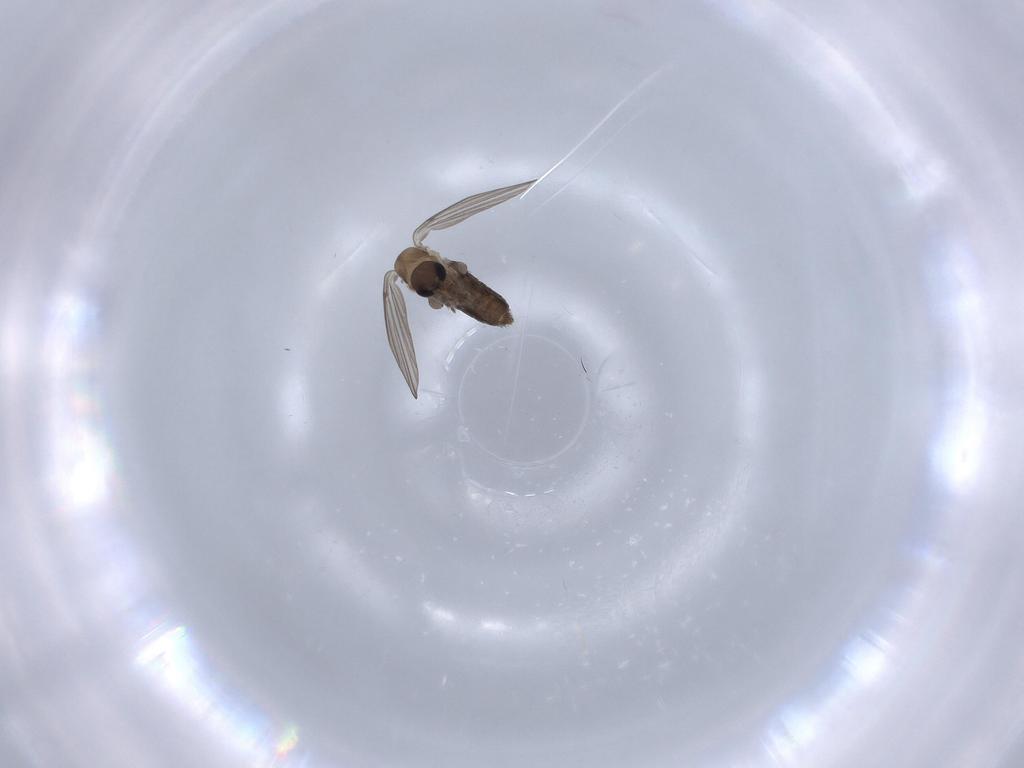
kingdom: Animalia
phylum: Arthropoda
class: Insecta
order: Diptera
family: Psychodidae
